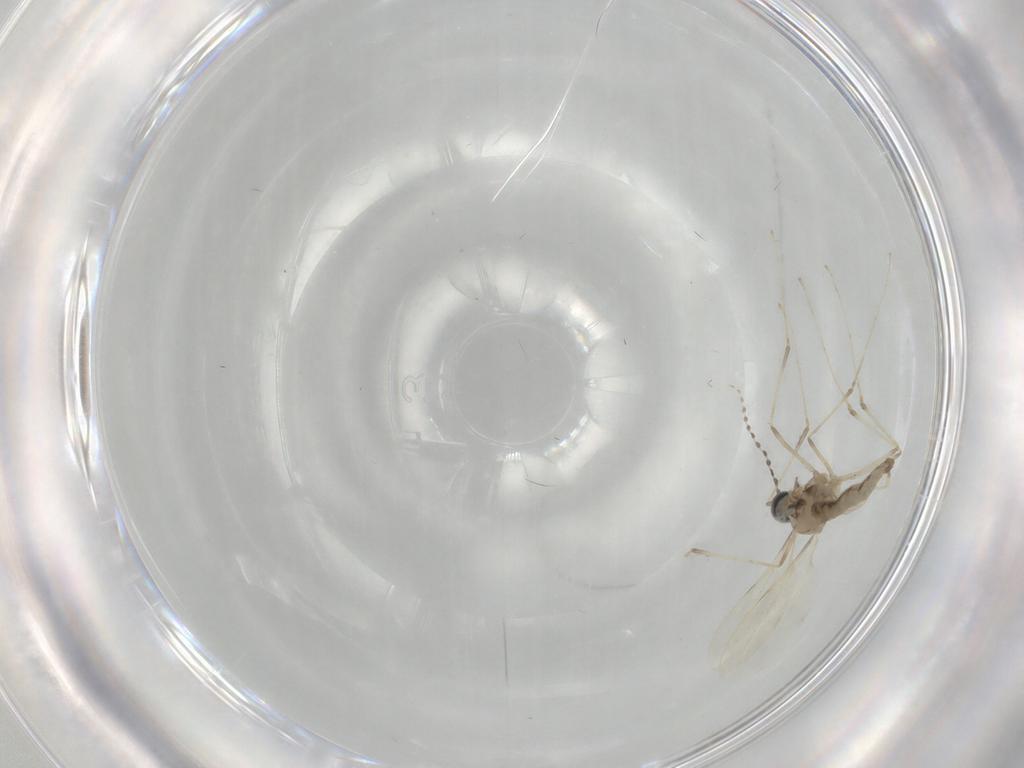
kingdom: Animalia
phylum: Arthropoda
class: Insecta
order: Diptera
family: Cecidomyiidae
